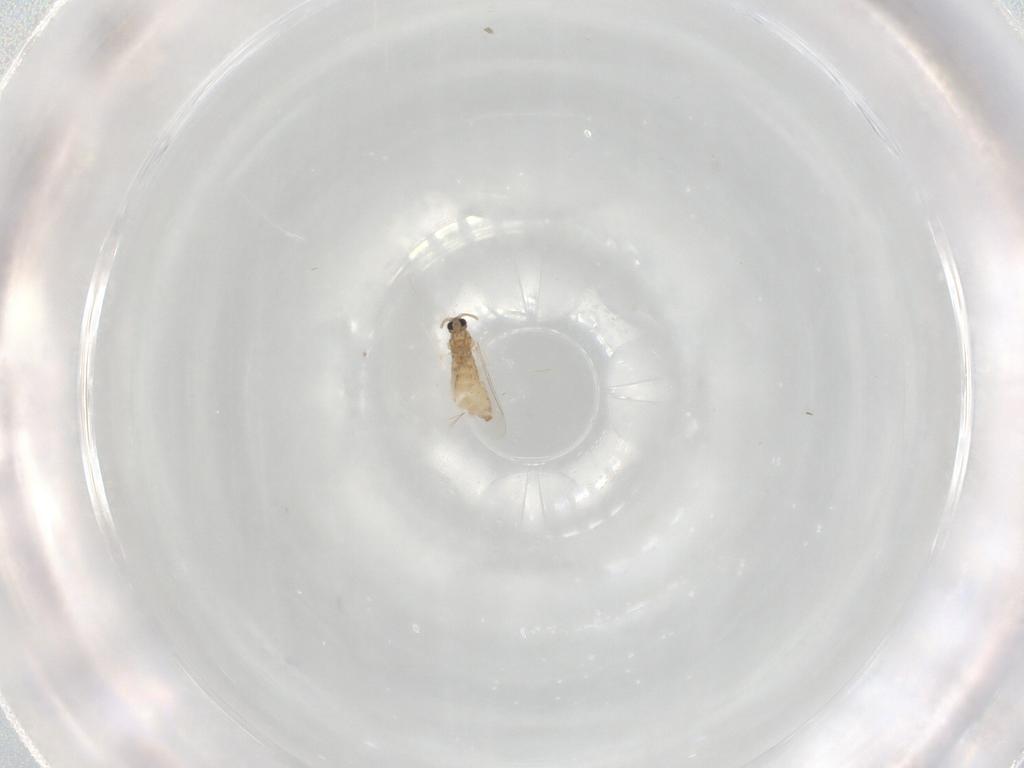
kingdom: Animalia
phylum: Arthropoda
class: Insecta
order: Diptera
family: Cecidomyiidae
